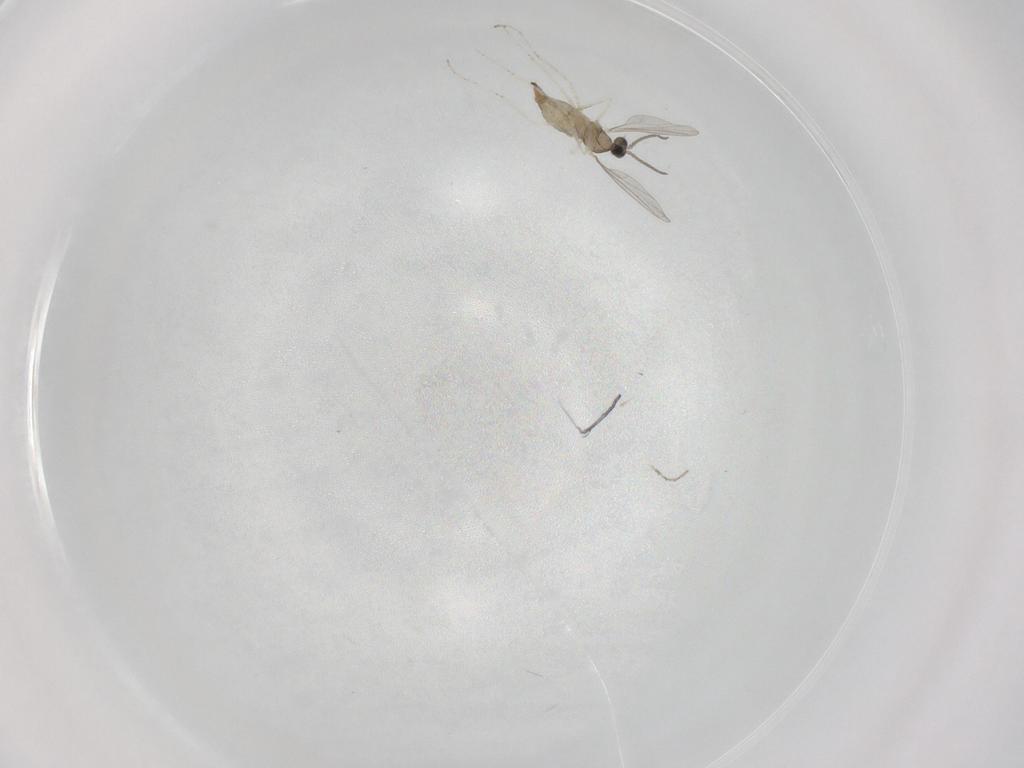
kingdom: Animalia
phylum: Arthropoda
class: Insecta
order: Diptera
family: Cecidomyiidae
